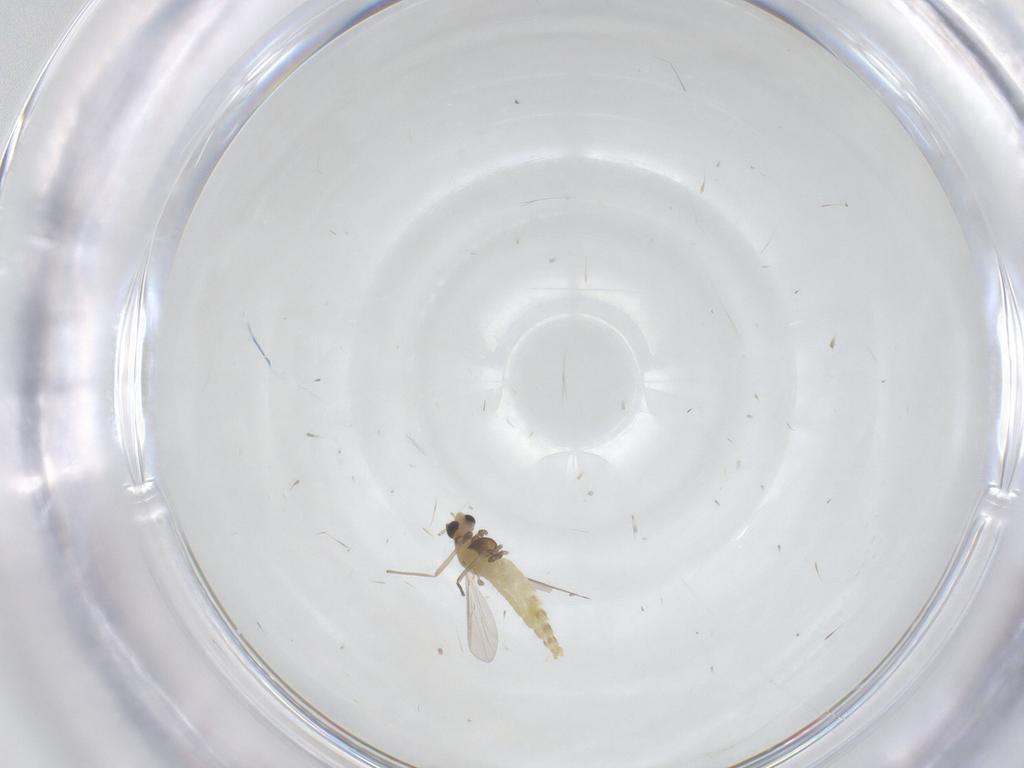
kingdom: Animalia
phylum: Arthropoda
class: Insecta
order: Diptera
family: Chironomidae
